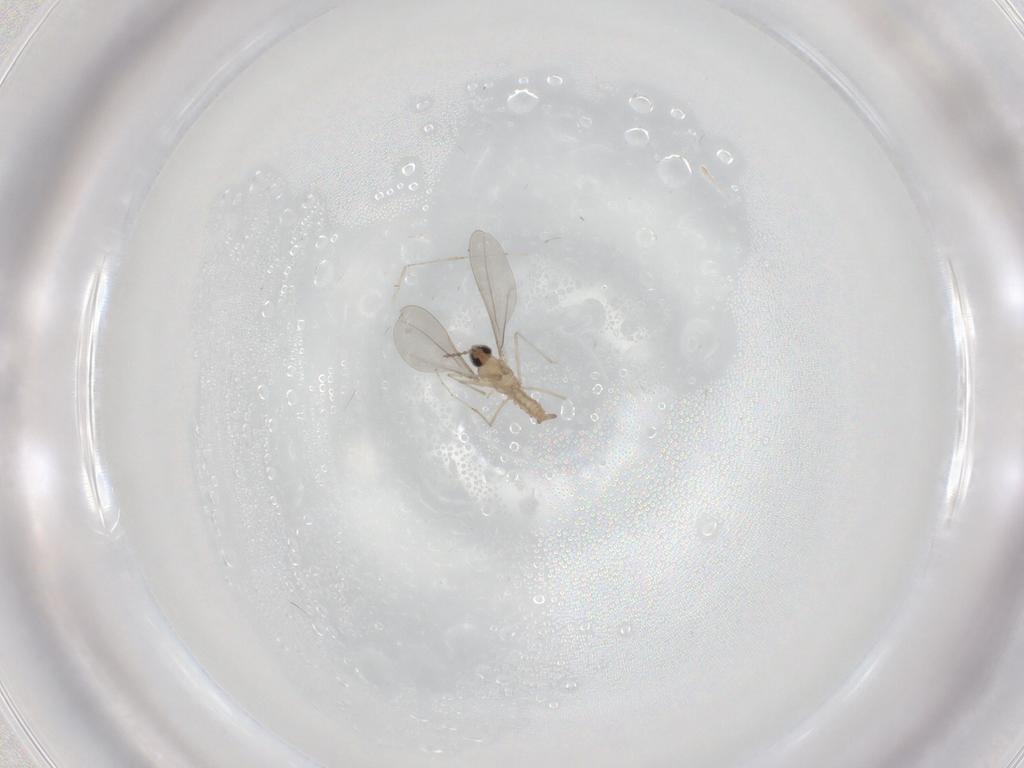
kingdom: Animalia
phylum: Arthropoda
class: Insecta
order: Diptera
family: Cecidomyiidae
